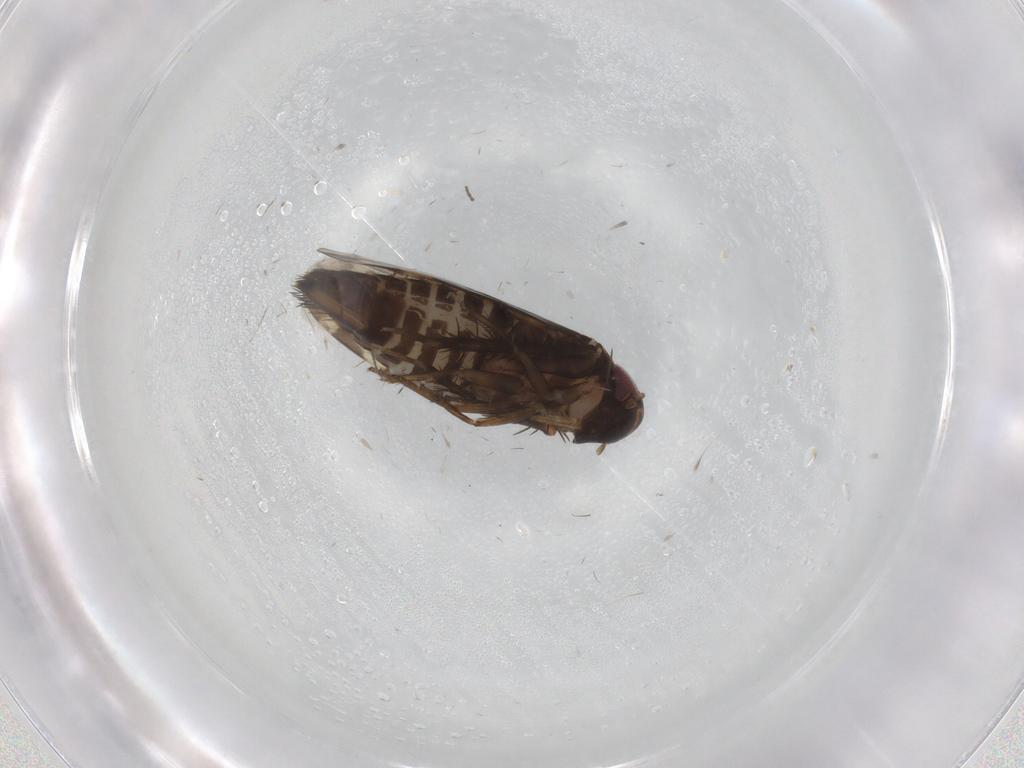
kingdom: Animalia
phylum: Arthropoda
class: Insecta
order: Hemiptera
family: Cicadellidae
